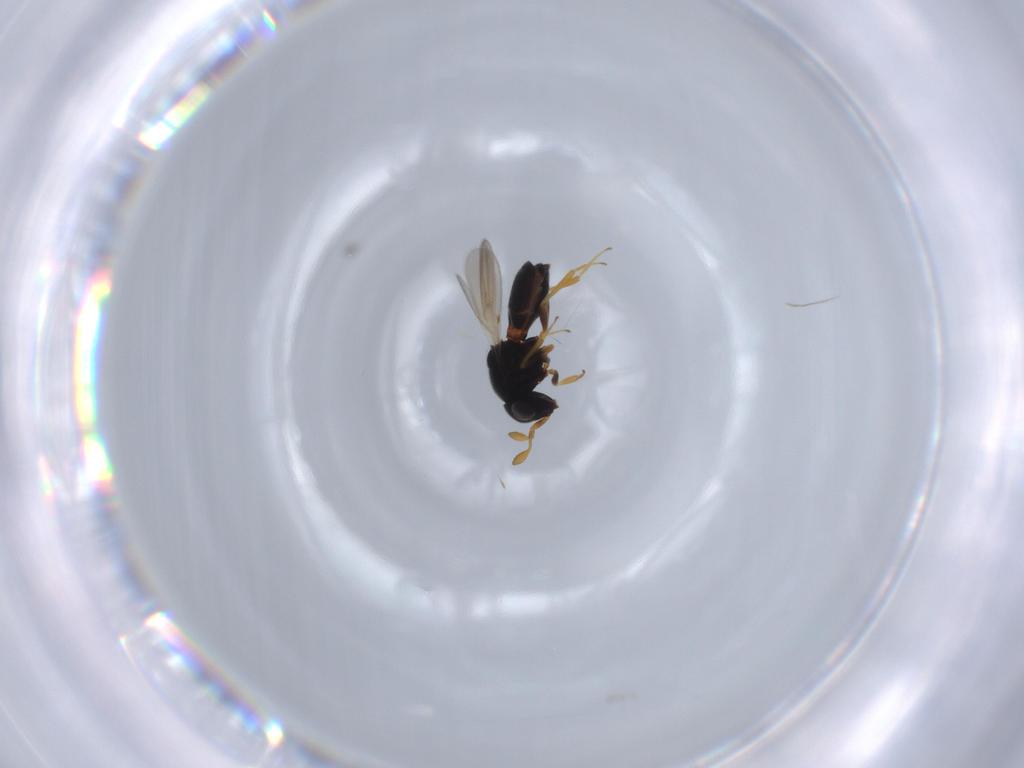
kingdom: Animalia
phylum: Arthropoda
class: Insecta
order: Hymenoptera
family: Scelionidae
